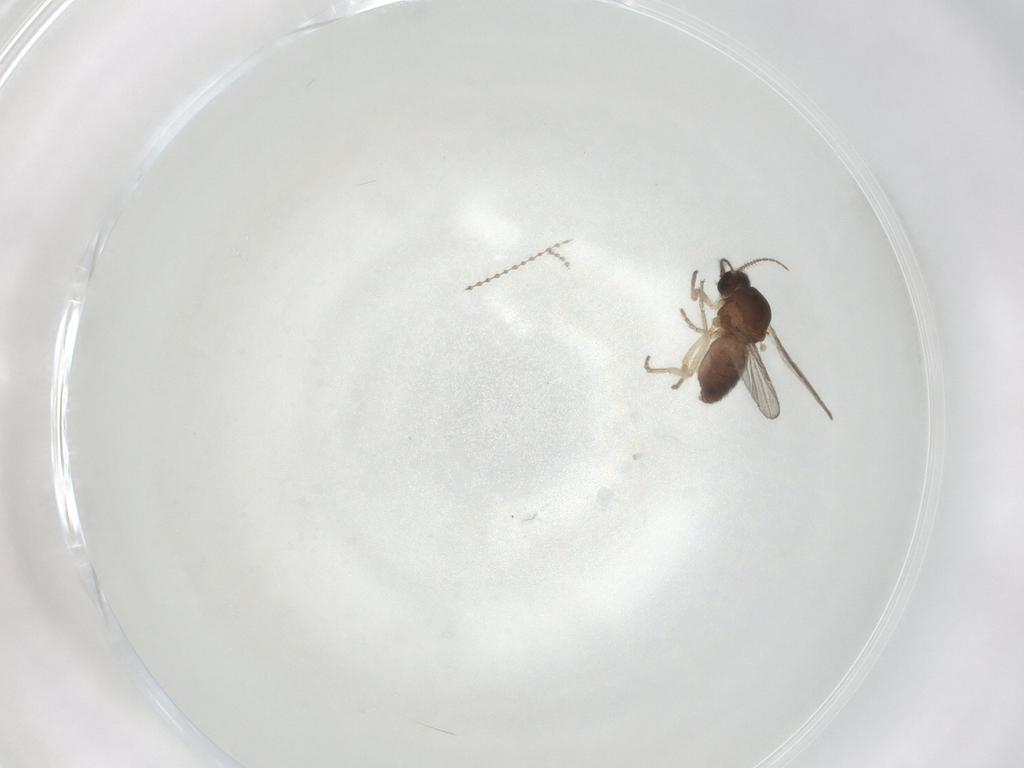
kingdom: Animalia
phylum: Arthropoda
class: Insecta
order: Diptera
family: Ceratopogonidae
